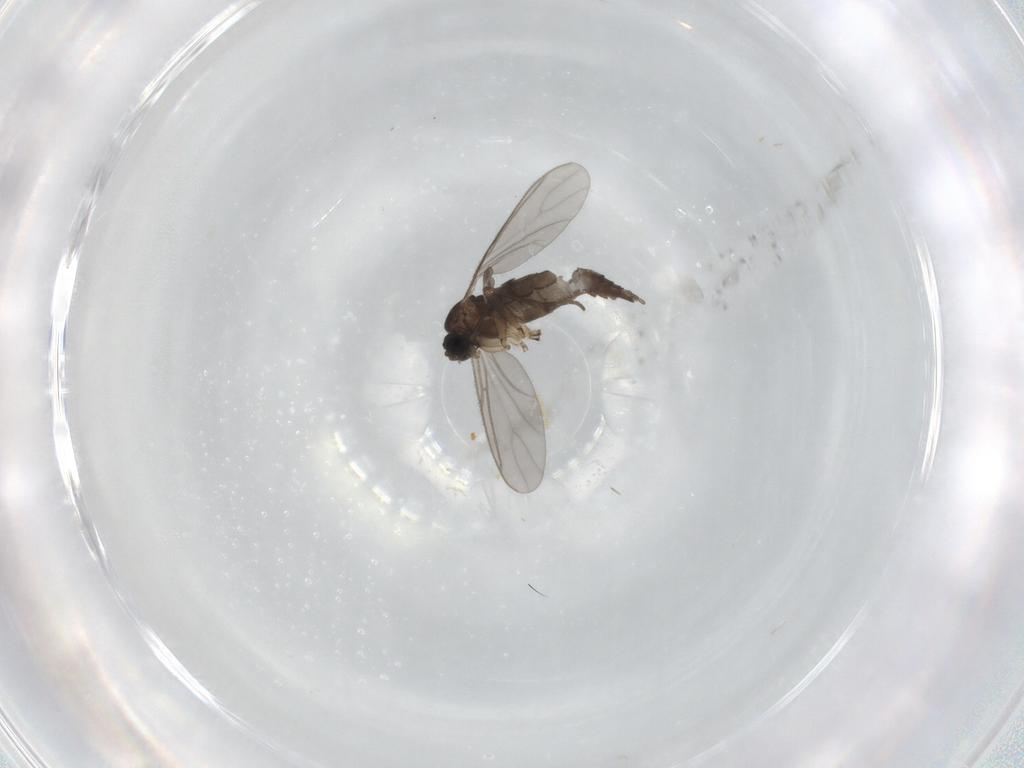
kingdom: Animalia
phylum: Arthropoda
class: Insecta
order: Diptera
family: Sciaridae
